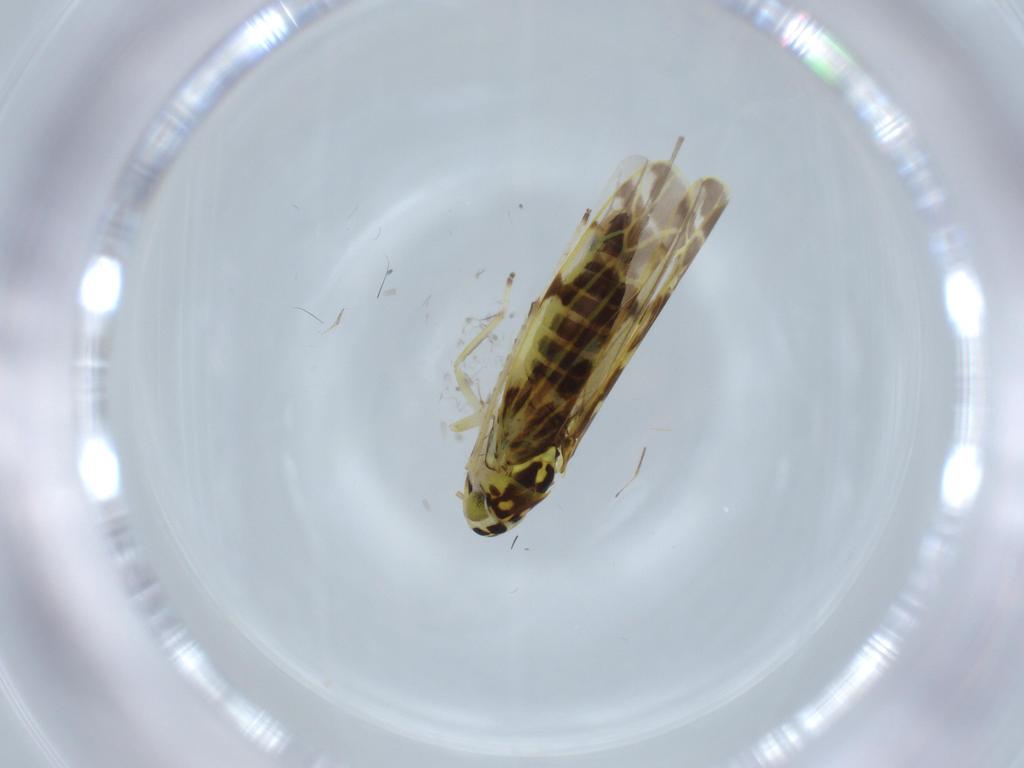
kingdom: Animalia
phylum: Arthropoda
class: Insecta
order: Hemiptera
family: Cicadellidae
